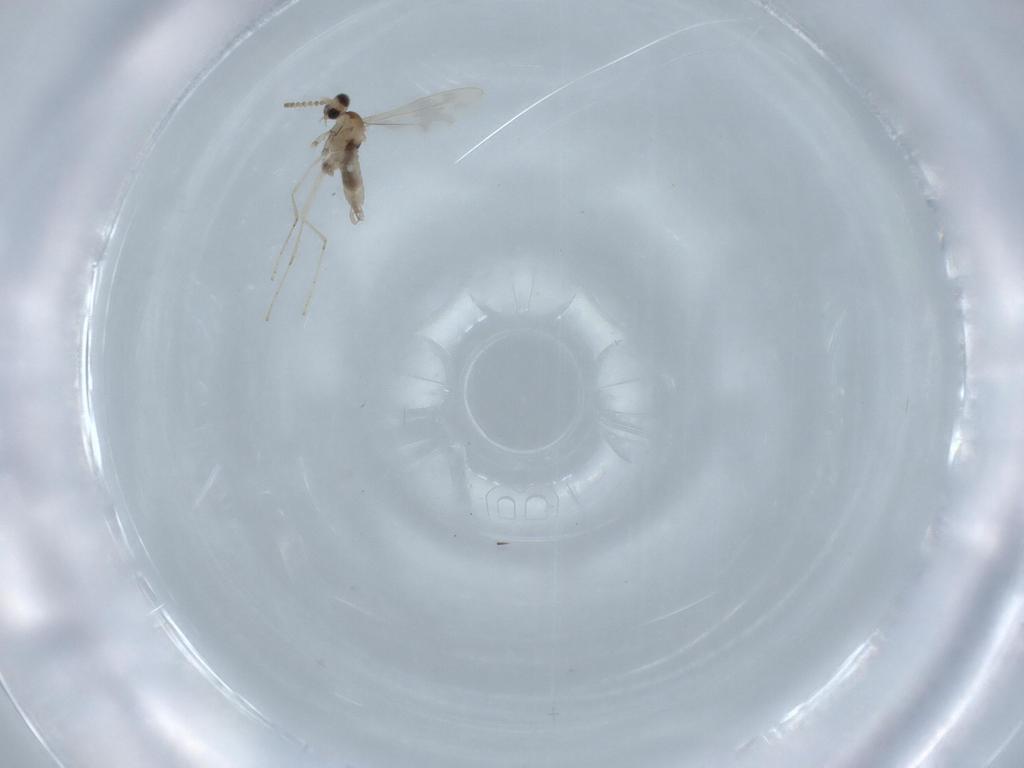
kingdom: Animalia
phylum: Arthropoda
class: Insecta
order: Diptera
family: Cecidomyiidae
